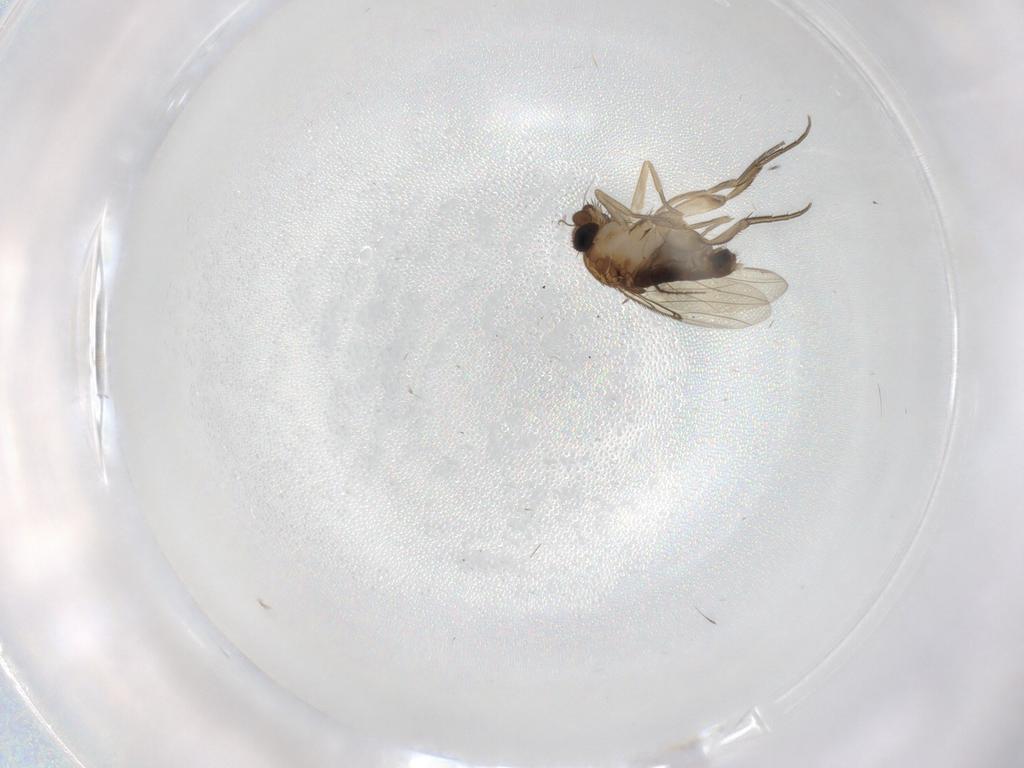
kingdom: Animalia
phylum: Arthropoda
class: Insecta
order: Diptera
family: Phoridae
